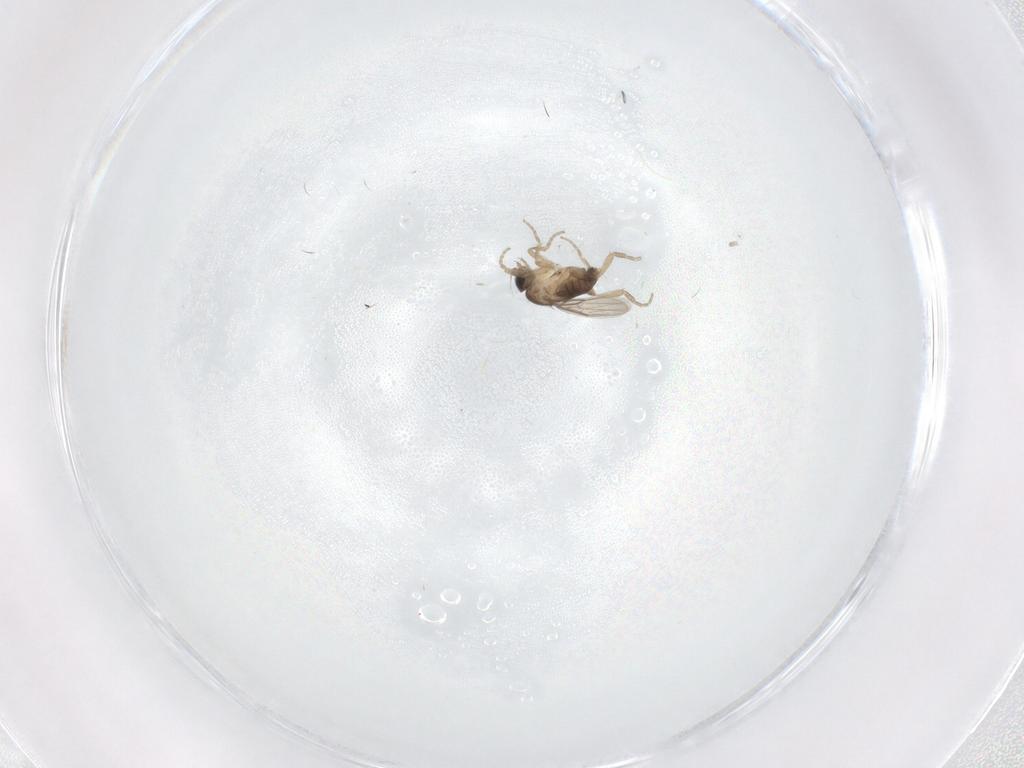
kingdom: Animalia
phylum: Arthropoda
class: Insecta
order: Diptera
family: Phoridae
